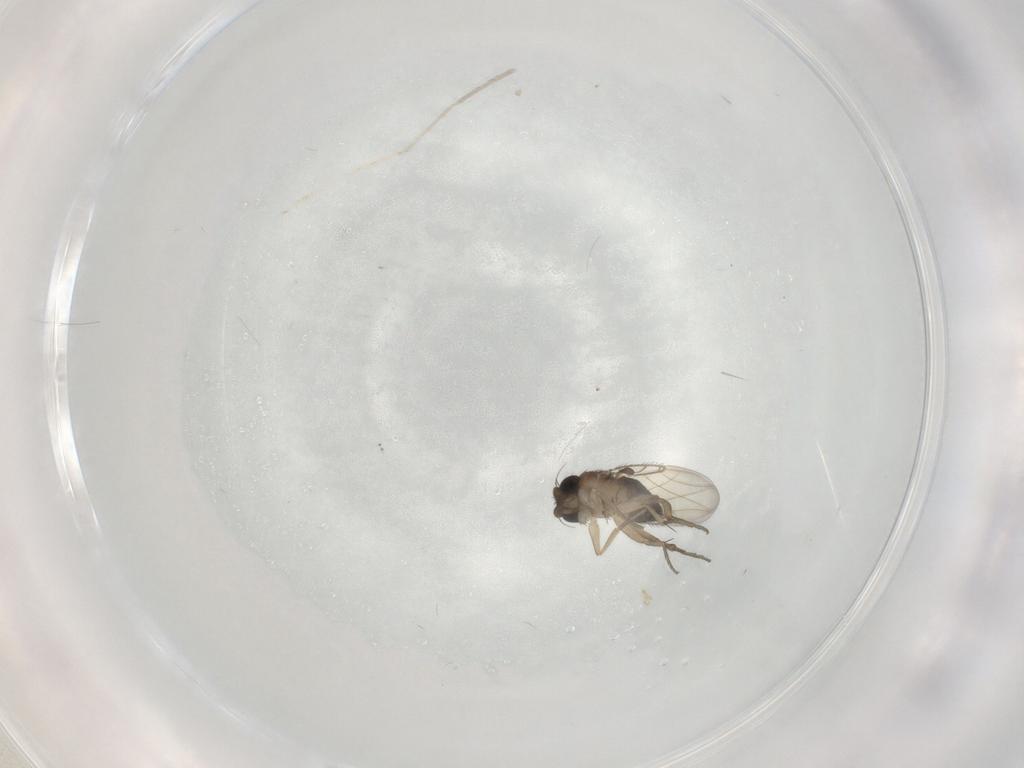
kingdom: Animalia
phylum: Arthropoda
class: Insecta
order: Diptera
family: Phoridae
